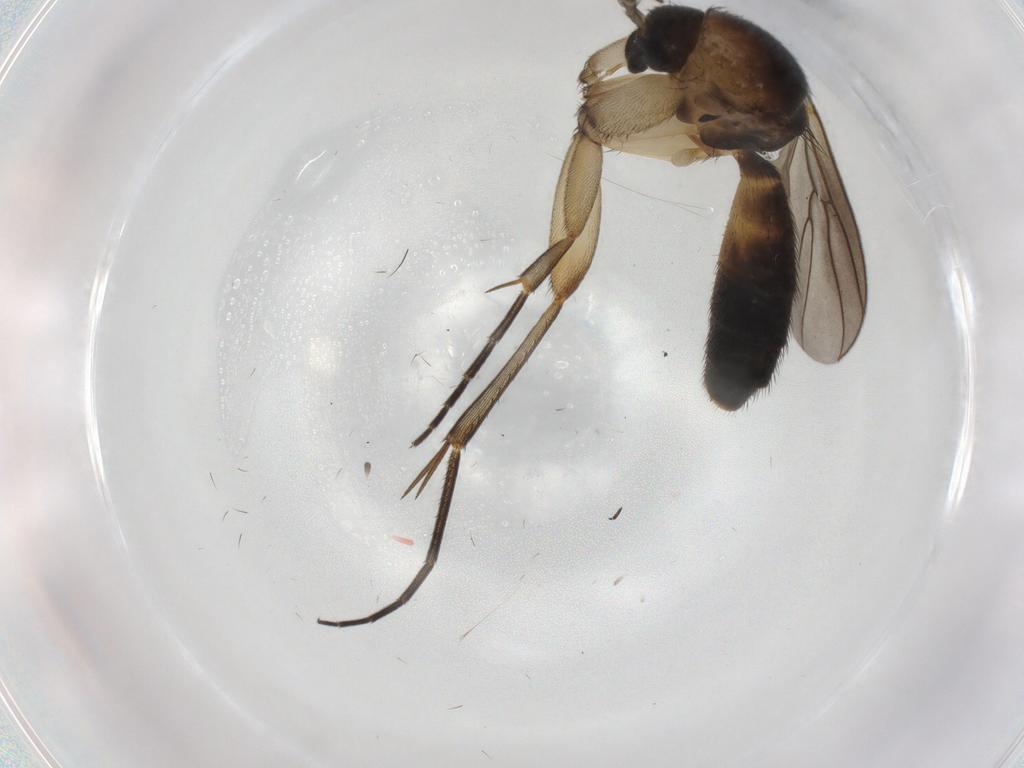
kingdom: Animalia
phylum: Arthropoda
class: Insecta
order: Diptera
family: Mycetophilidae
